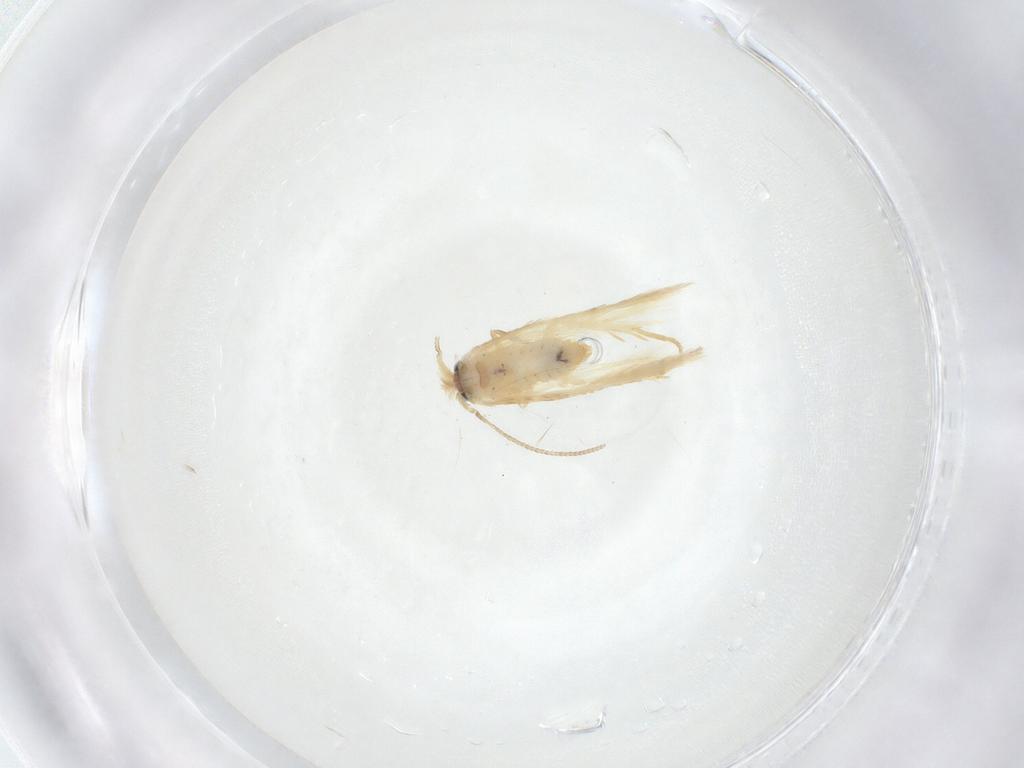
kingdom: Animalia
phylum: Arthropoda
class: Insecta
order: Lepidoptera
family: Nepticulidae
